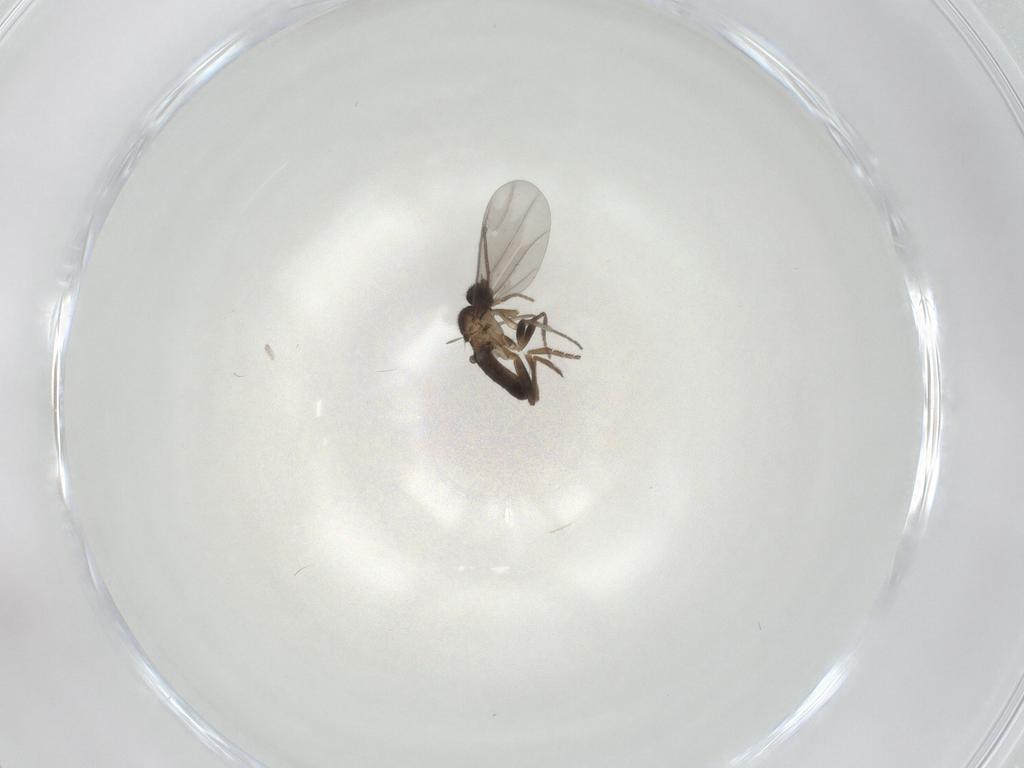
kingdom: Animalia
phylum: Arthropoda
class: Insecta
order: Diptera
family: Phoridae
